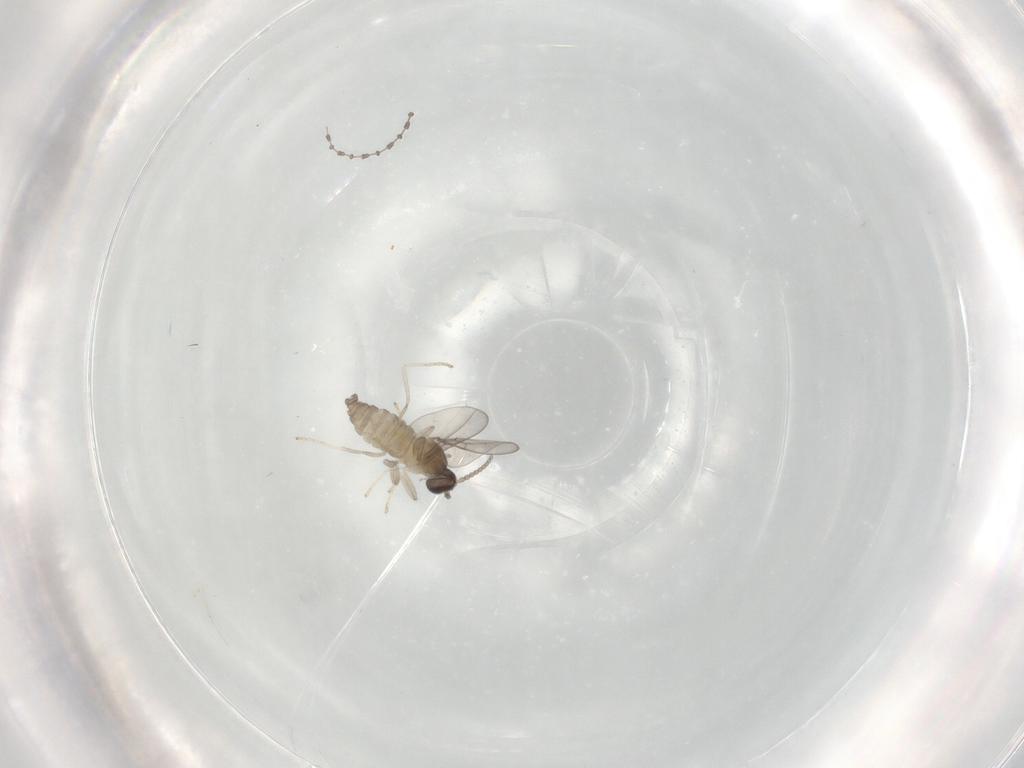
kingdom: Animalia
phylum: Arthropoda
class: Insecta
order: Diptera
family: Cecidomyiidae
